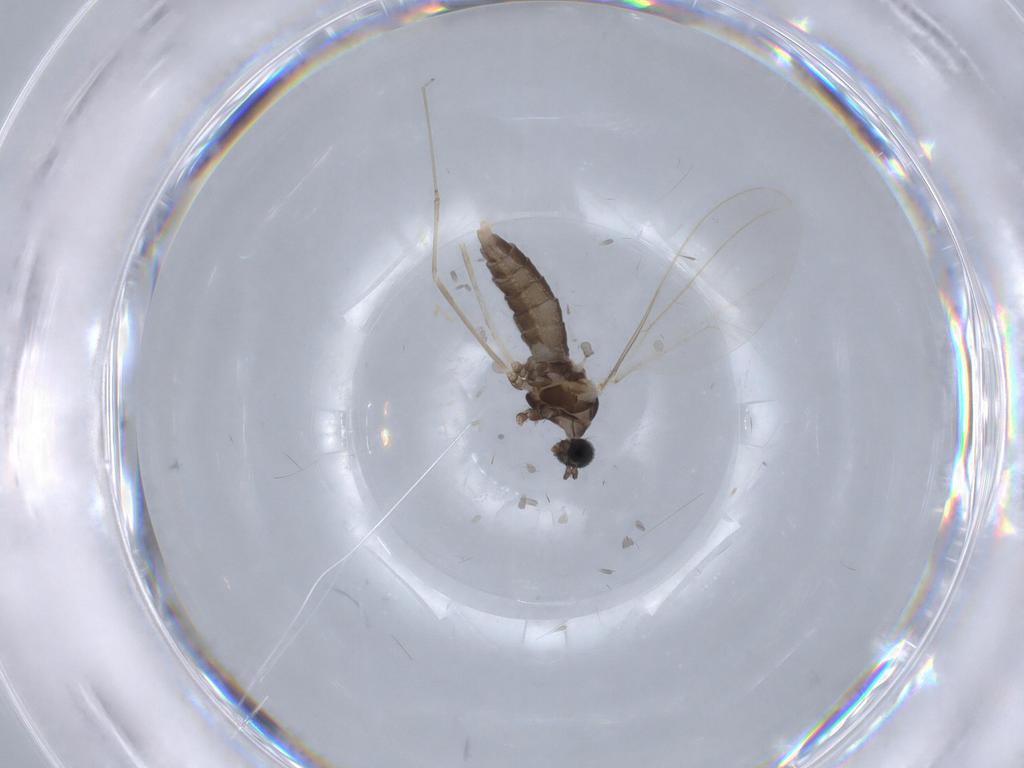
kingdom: Animalia
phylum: Arthropoda
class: Insecta
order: Diptera
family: Cecidomyiidae
